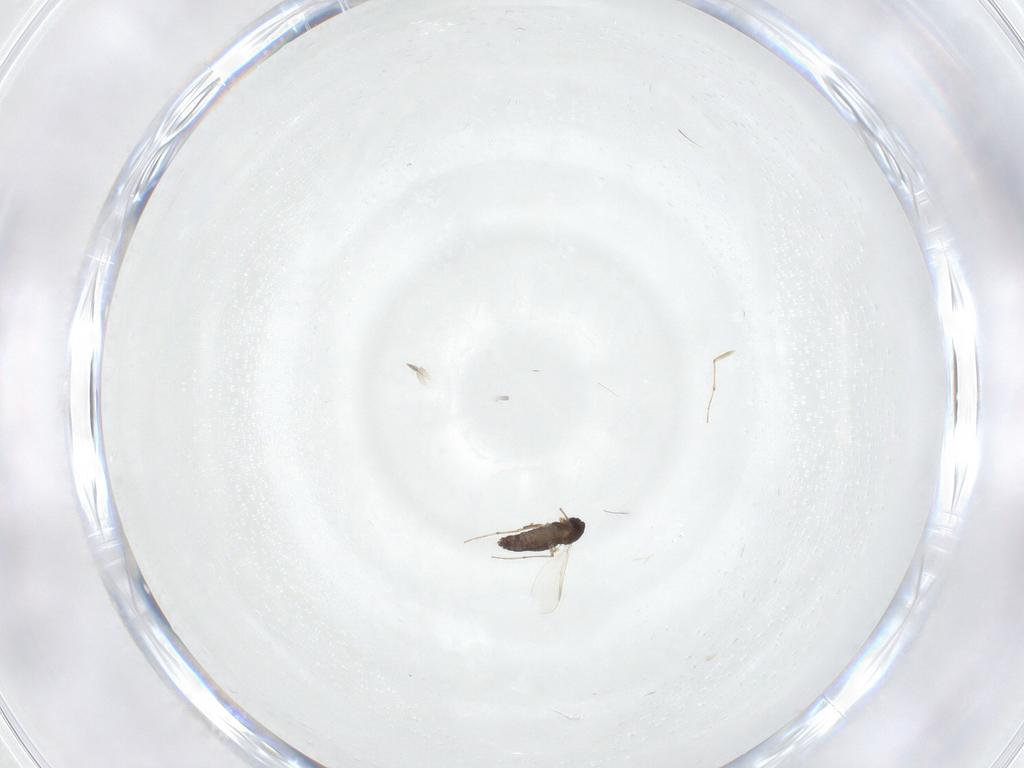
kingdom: Animalia
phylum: Arthropoda
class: Insecta
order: Diptera
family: Chironomidae
